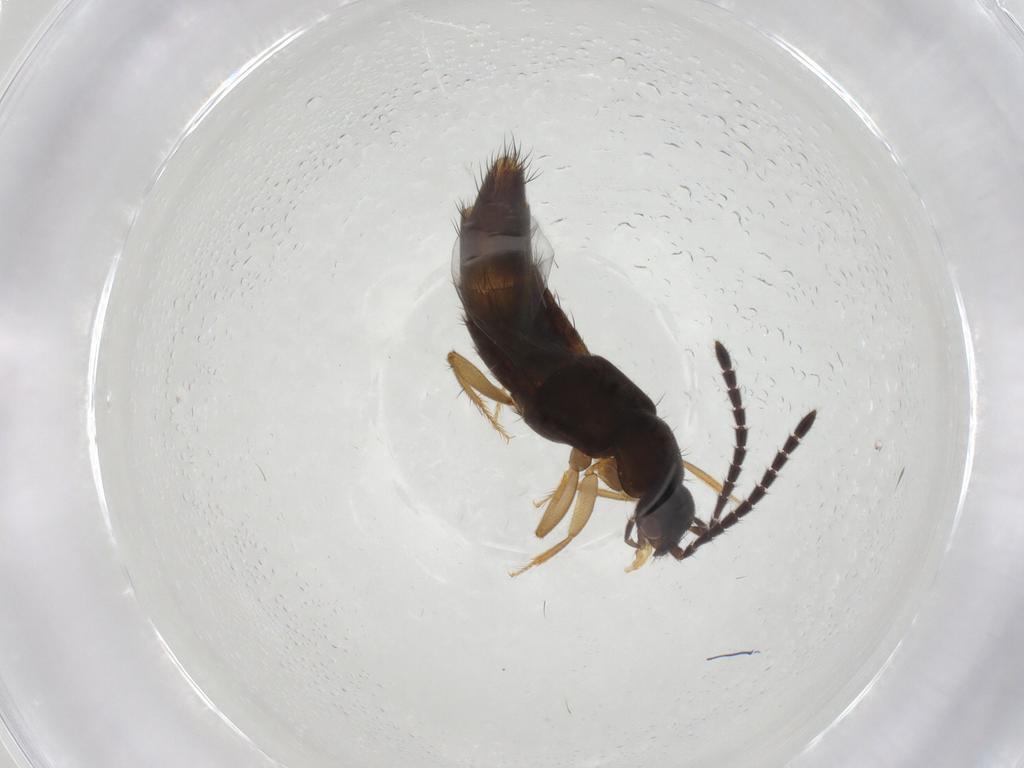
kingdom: Animalia
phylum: Arthropoda
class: Insecta
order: Coleoptera
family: Staphylinidae
